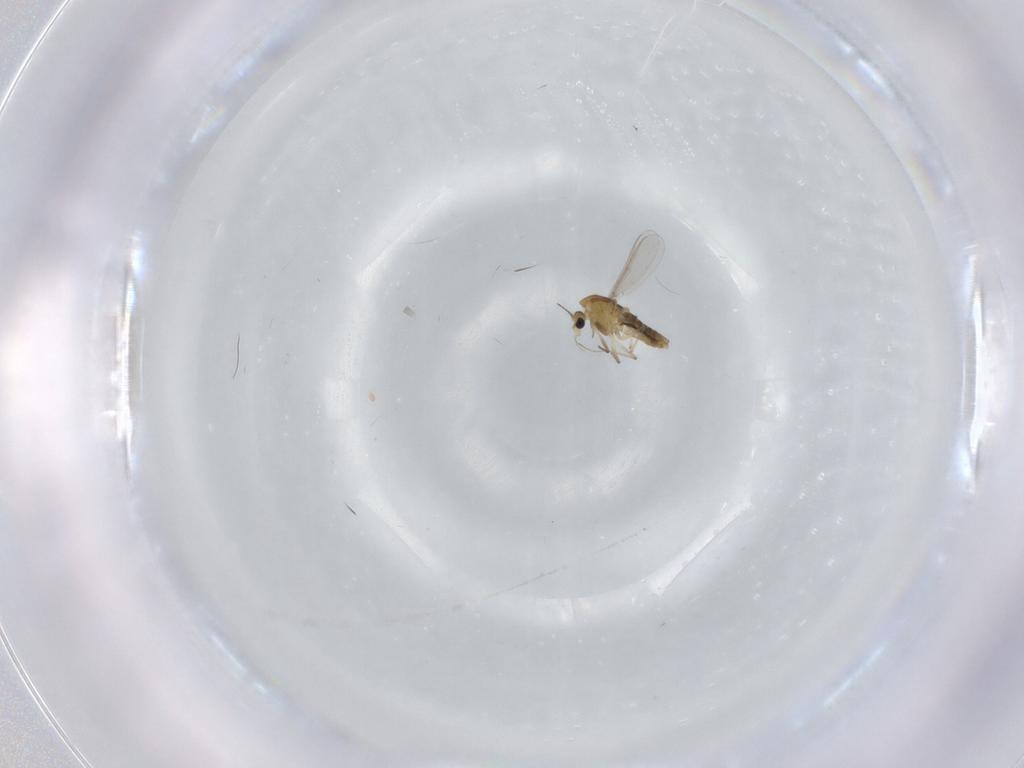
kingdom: Animalia
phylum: Arthropoda
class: Insecta
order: Diptera
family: Chironomidae
